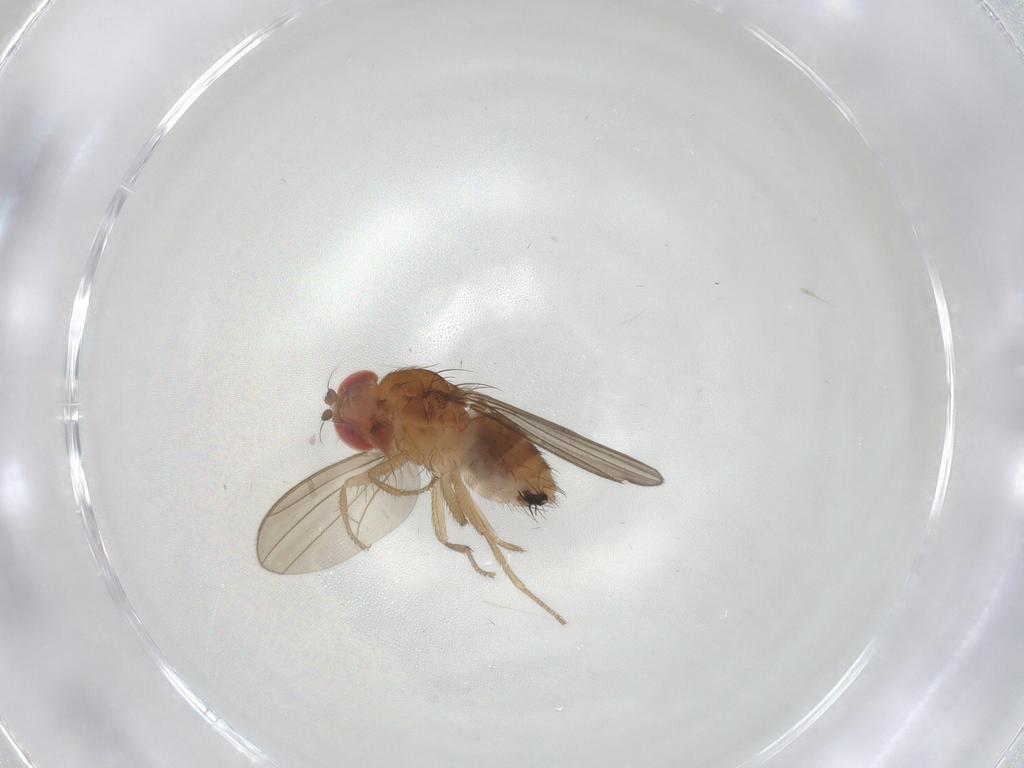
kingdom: Animalia
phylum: Arthropoda
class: Insecta
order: Diptera
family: Drosophilidae
